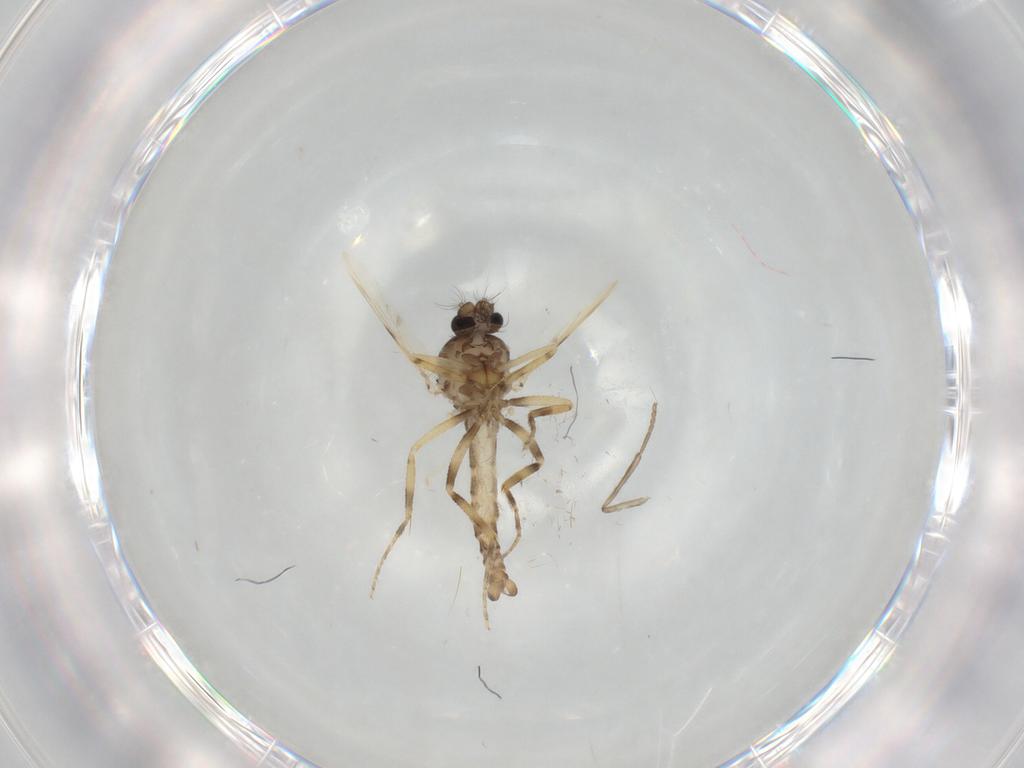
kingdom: Animalia
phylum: Arthropoda
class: Insecta
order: Diptera
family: Ceratopogonidae
